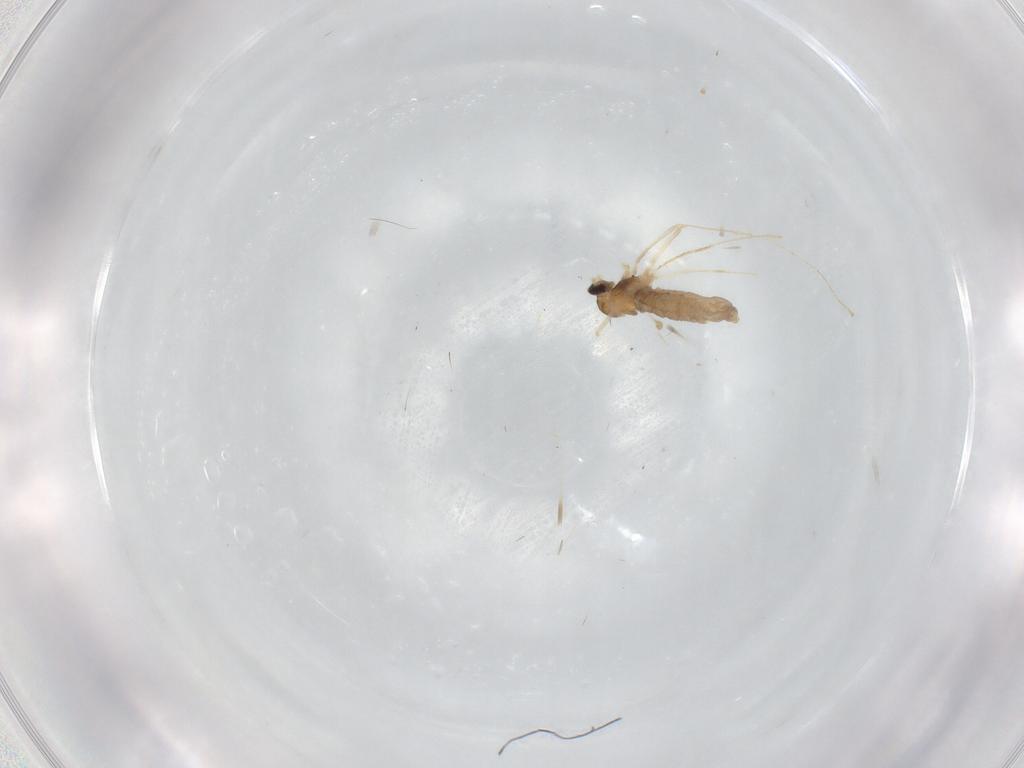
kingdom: Animalia
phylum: Arthropoda
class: Insecta
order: Diptera
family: Cecidomyiidae
